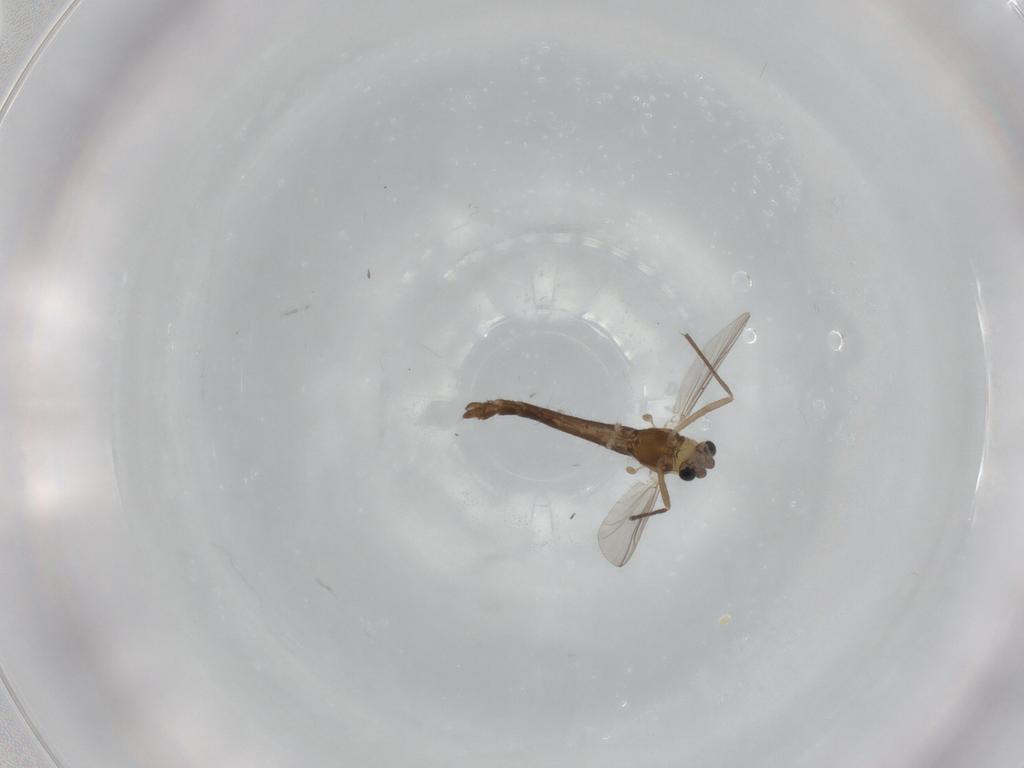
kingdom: Animalia
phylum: Arthropoda
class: Insecta
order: Diptera
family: Chironomidae
